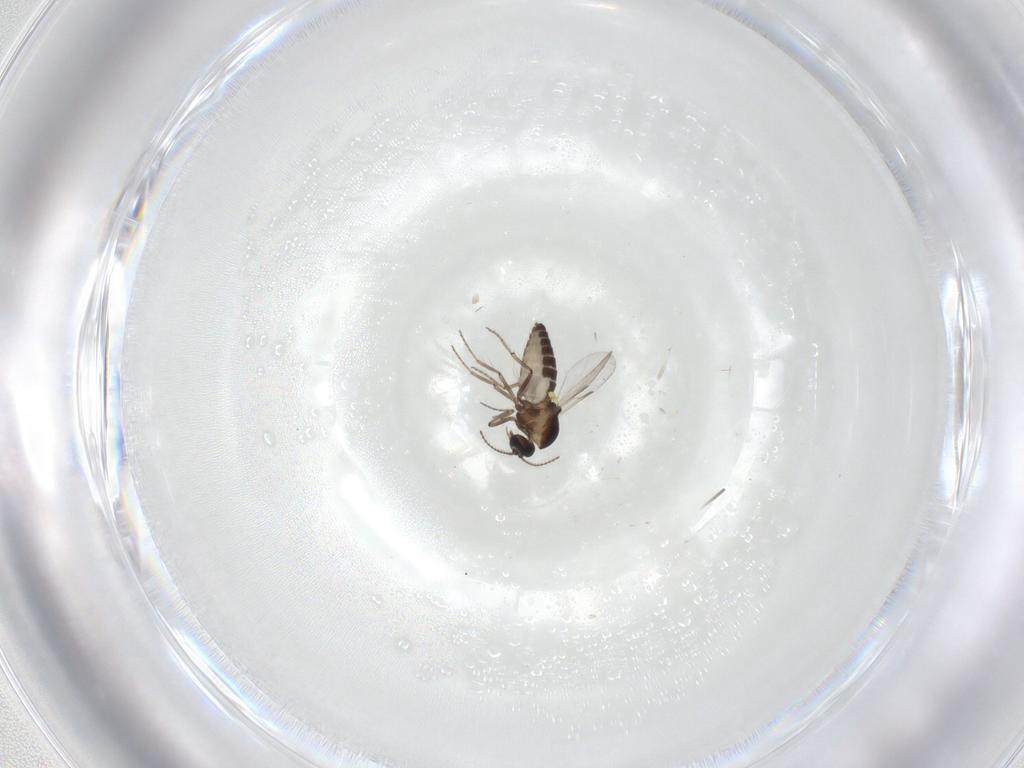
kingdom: Animalia
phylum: Arthropoda
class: Insecta
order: Diptera
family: Ceratopogonidae
